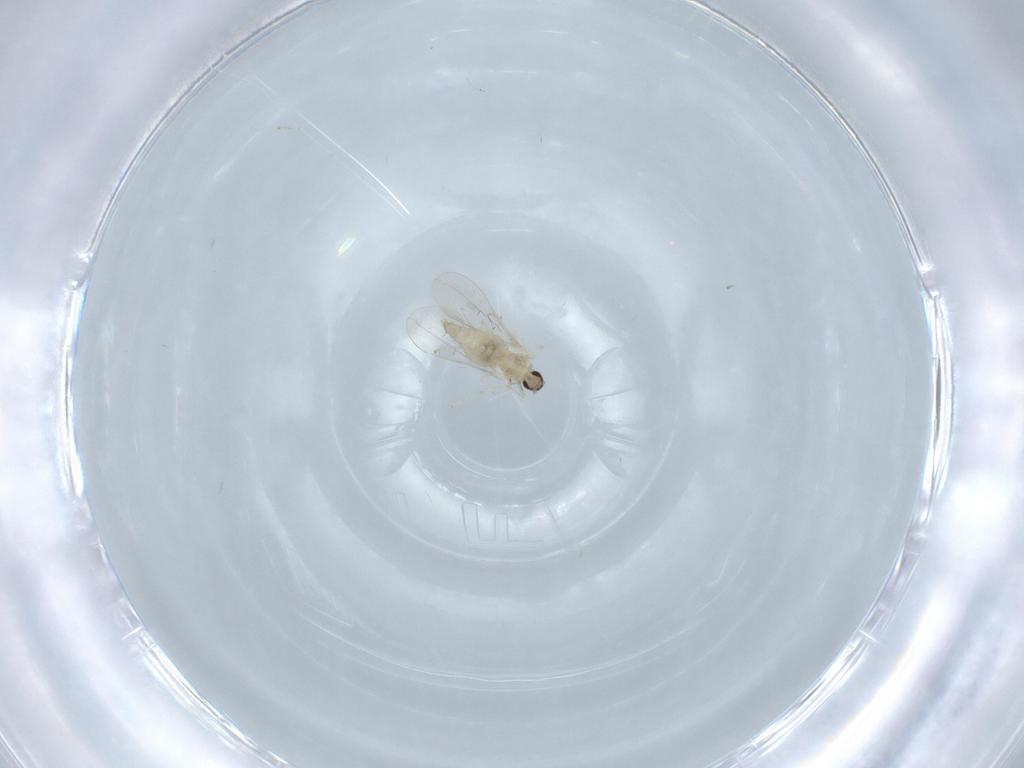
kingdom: Animalia
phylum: Arthropoda
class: Insecta
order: Diptera
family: Cecidomyiidae
